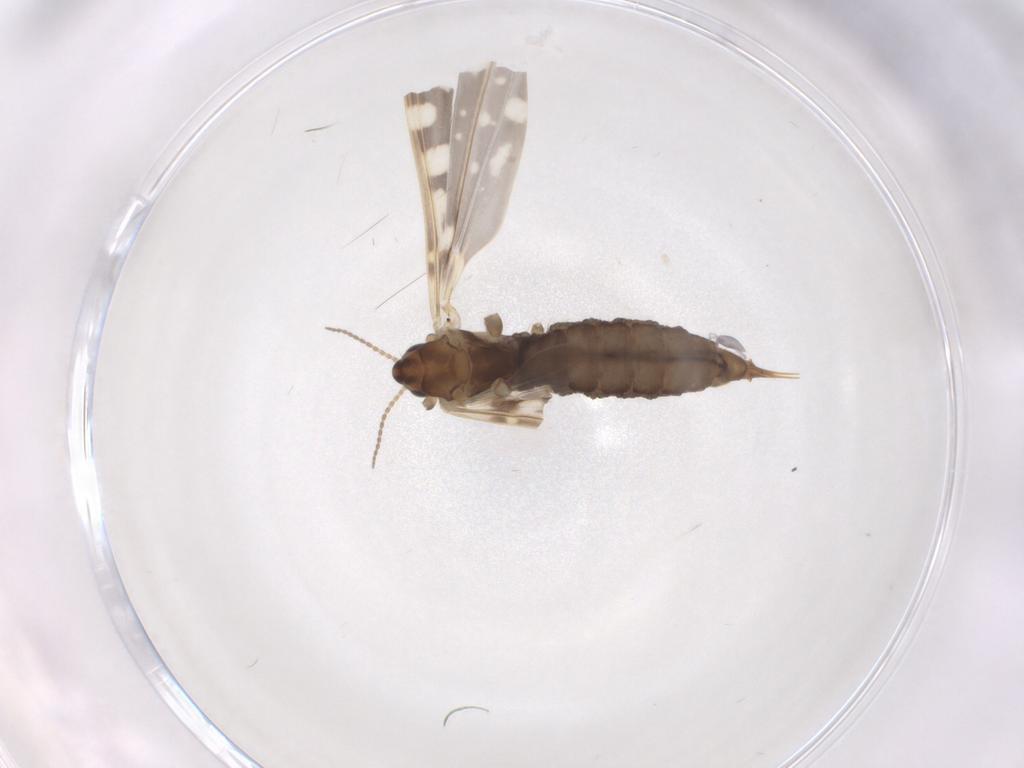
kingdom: Animalia
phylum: Arthropoda
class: Insecta
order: Diptera
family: Limoniidae
